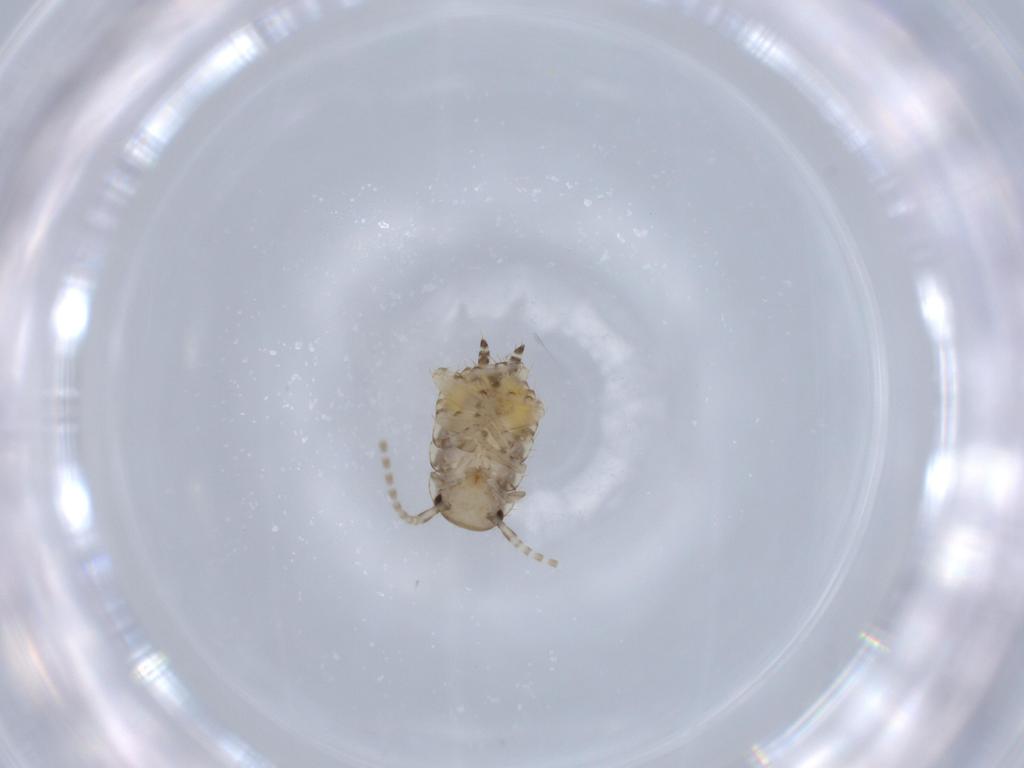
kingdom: Animalia
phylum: Arthropoda
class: Insecta
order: Blattodea
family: Ectobiidae
